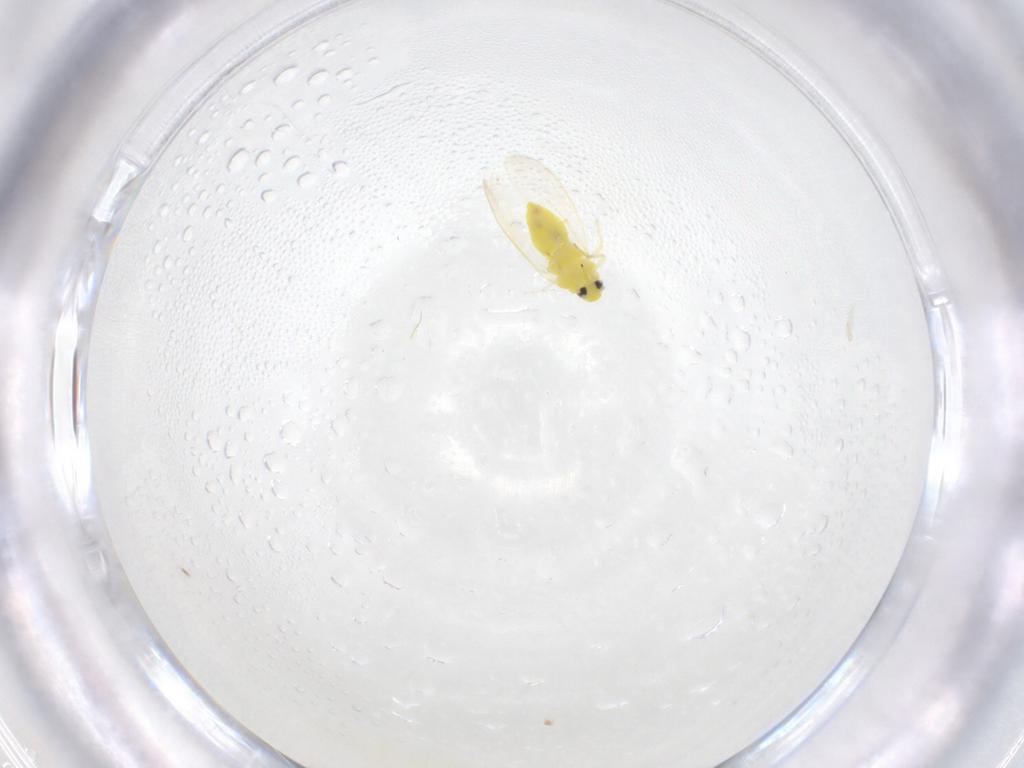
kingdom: Animalia
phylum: Arthropoda
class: Insecta
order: Hemiptera
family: Aleyrodidae
